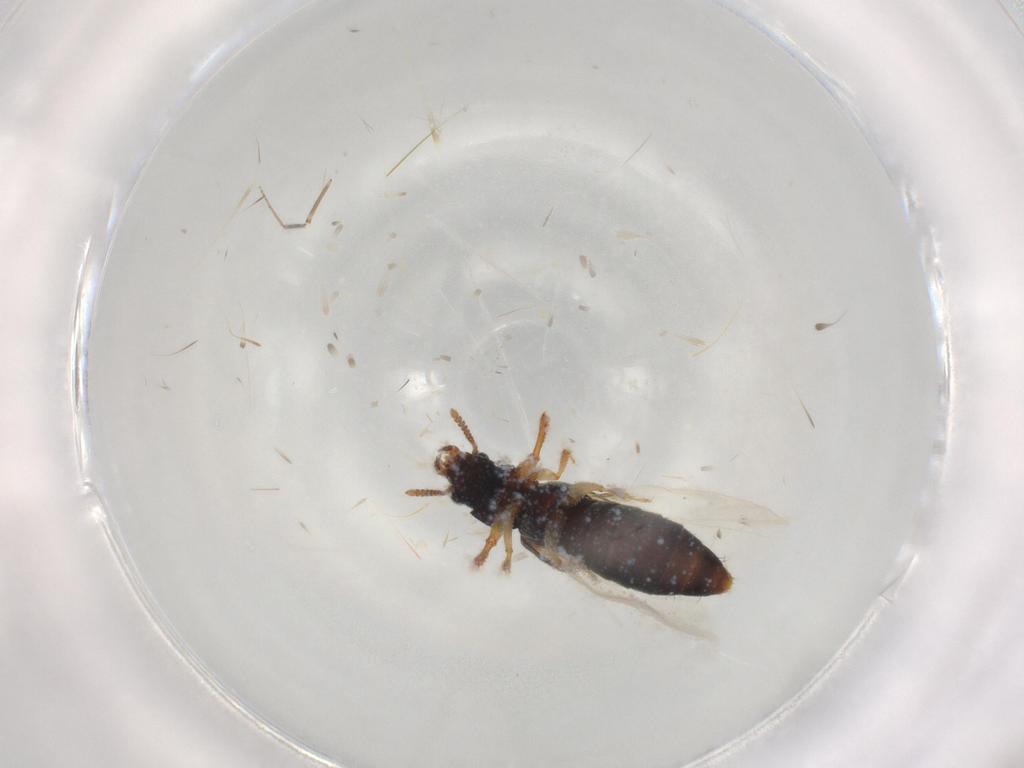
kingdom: Animalia
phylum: Arthropoda
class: Insecta
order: Coleoptera
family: Staphylinidae
